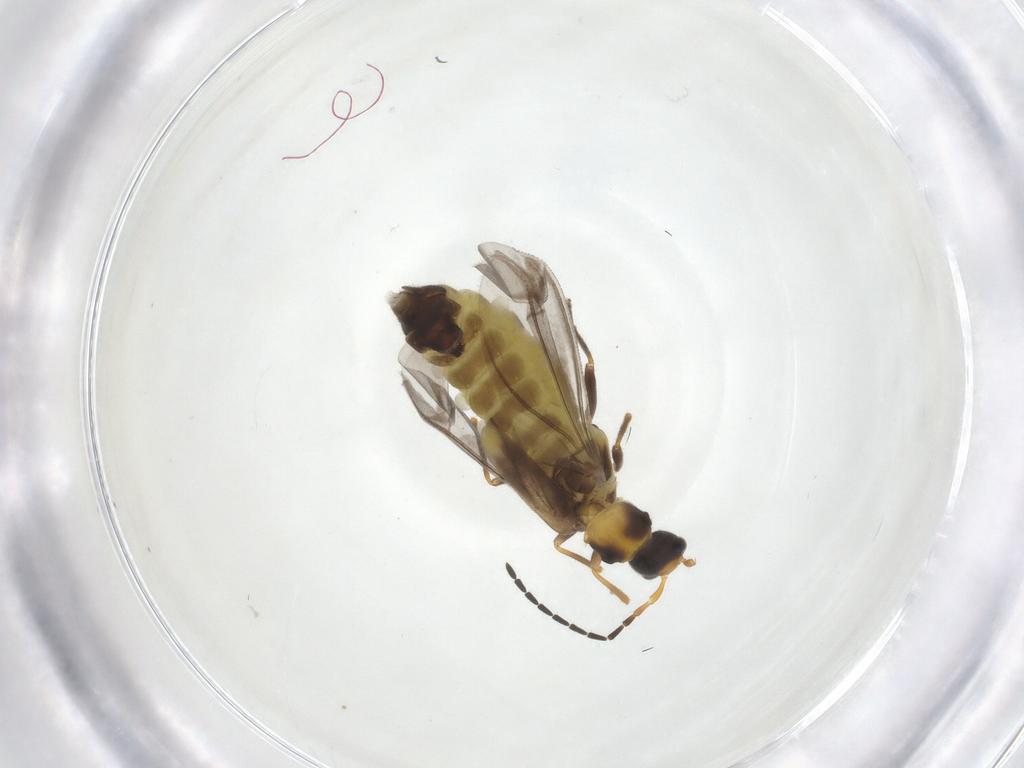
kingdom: Animalia
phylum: Arthropoda
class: Insecta
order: Coleoptera
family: Cantharidae
